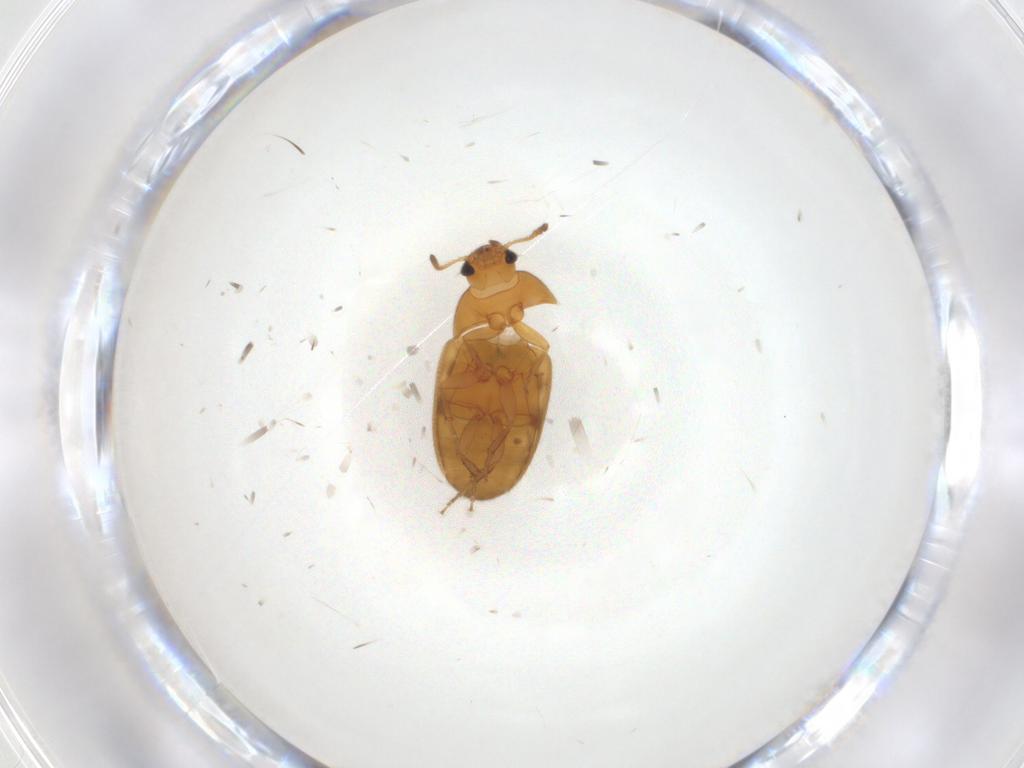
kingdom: Animalia
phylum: Arthropoda
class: Insecta
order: Coleoptera
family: Mycetophagidae
